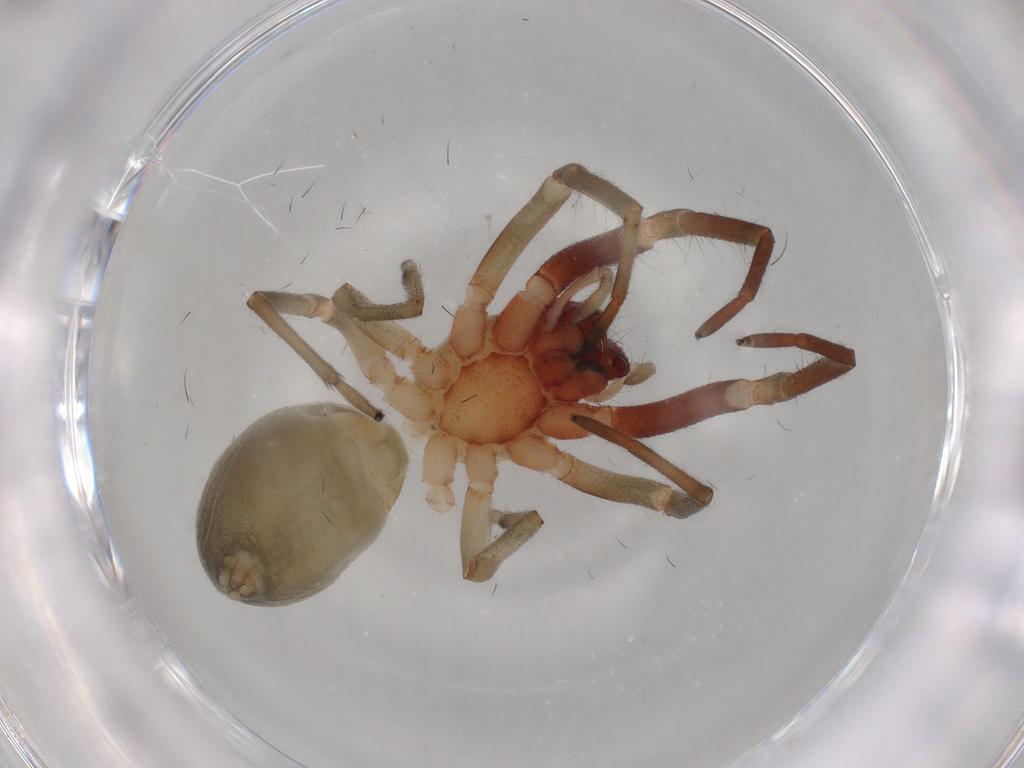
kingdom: Animalia
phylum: Arthropoda
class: Arachnida
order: Araneae
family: Trachelidae
